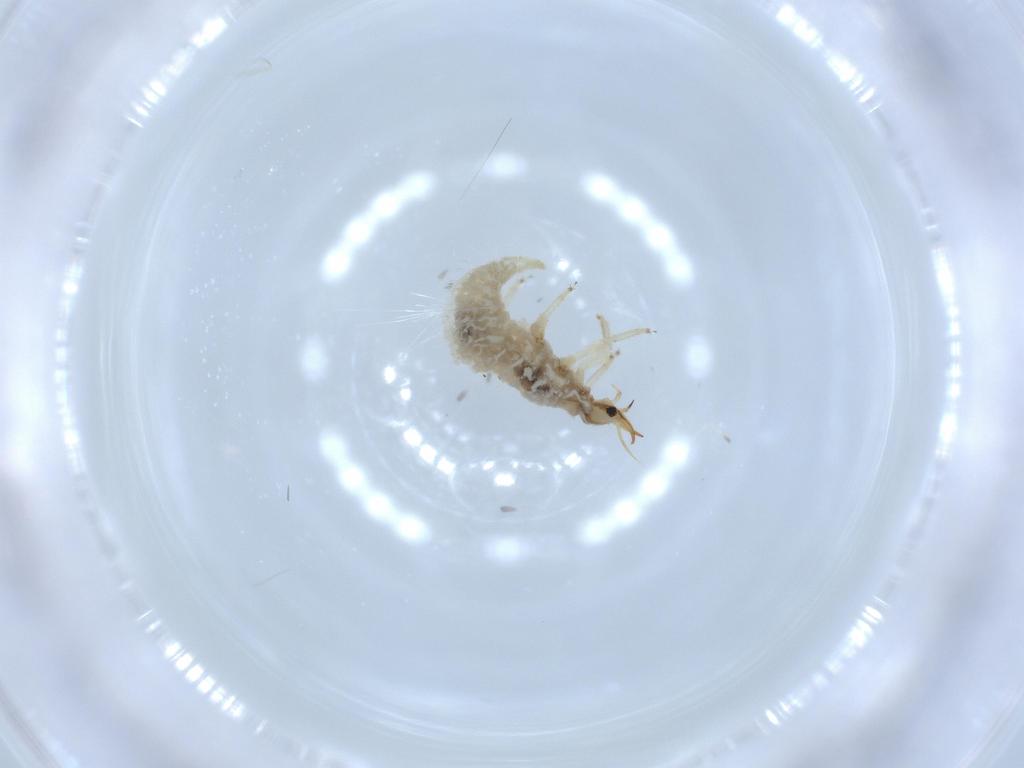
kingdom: Animalia
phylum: Arthropoda
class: Insecta
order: Neuroptera
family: Chrysopidae
